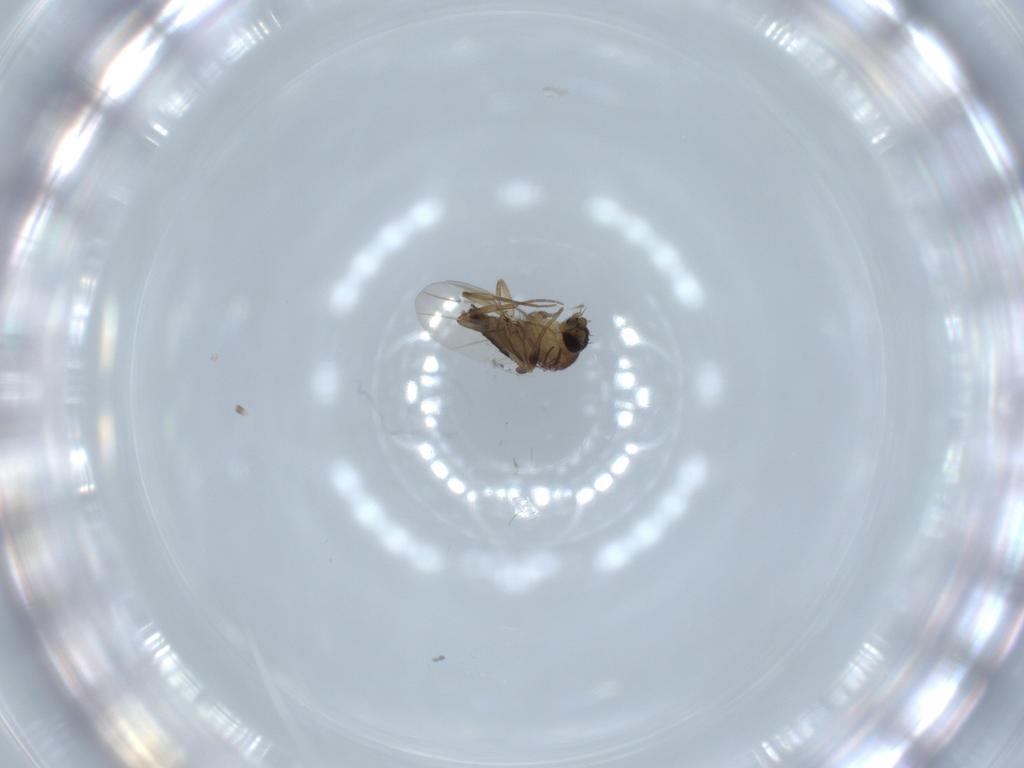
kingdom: Animalia
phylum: Arthropoda
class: Insecta
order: Diptera
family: Phoridae
